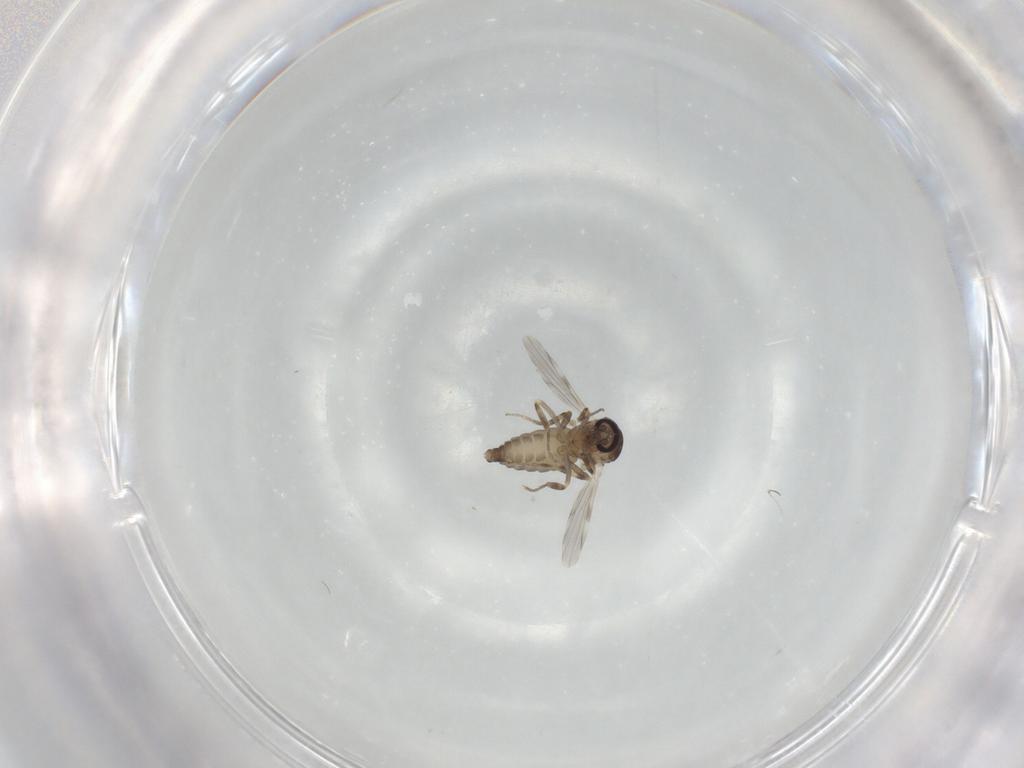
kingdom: Animalia
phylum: Arthropoda
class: Insecta
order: Diptera
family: Ceratopogonidae
